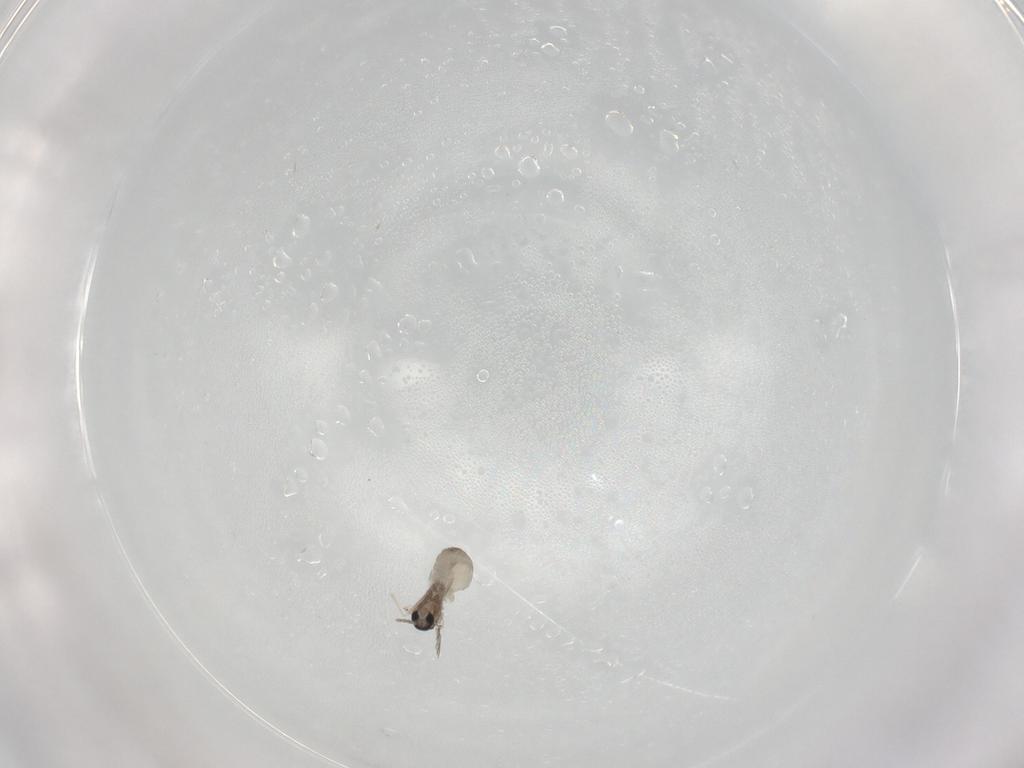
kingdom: Animalia
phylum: Arthropoda
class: Insecta
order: Diptera
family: Cecidomyiidae
